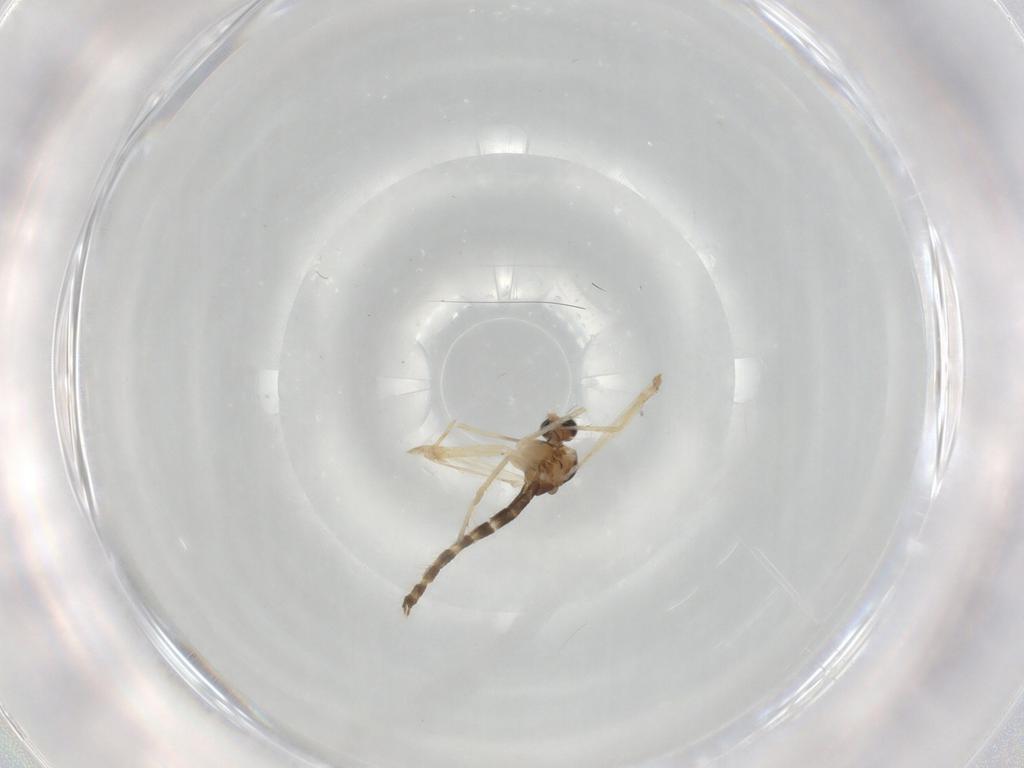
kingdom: Animalia
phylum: Arthropoda
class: Insecta
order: Diptera
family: Chironomidae
